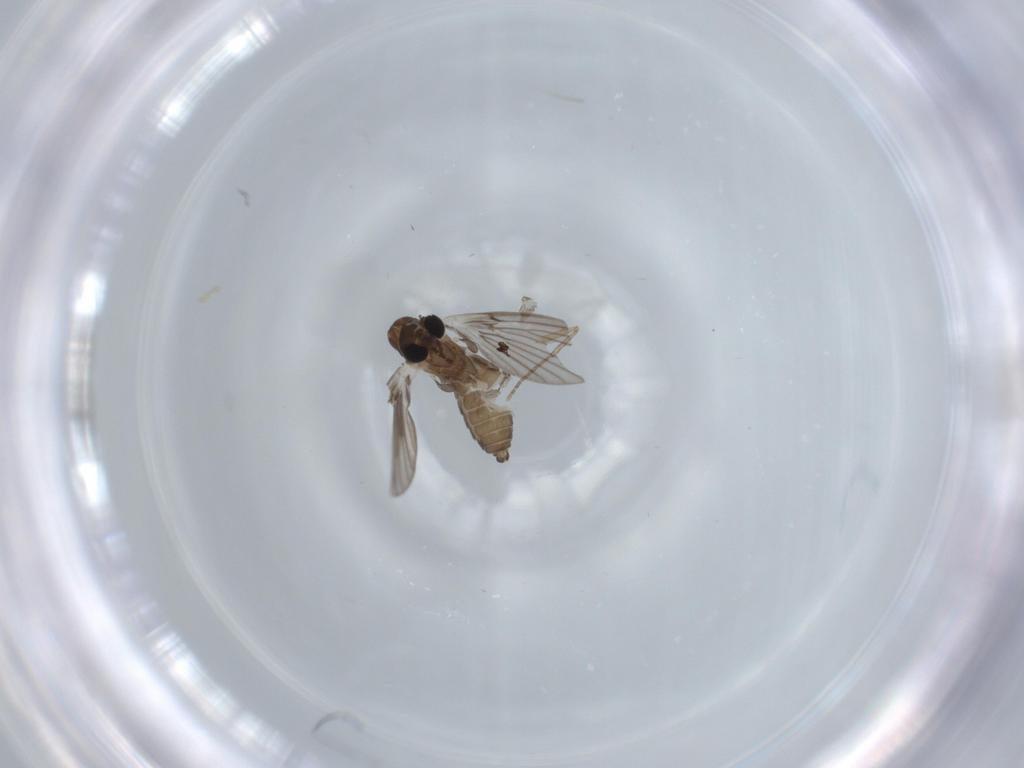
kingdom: Animalia
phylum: Arthropoda
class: Insecta
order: Diptera
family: Psychodidae
